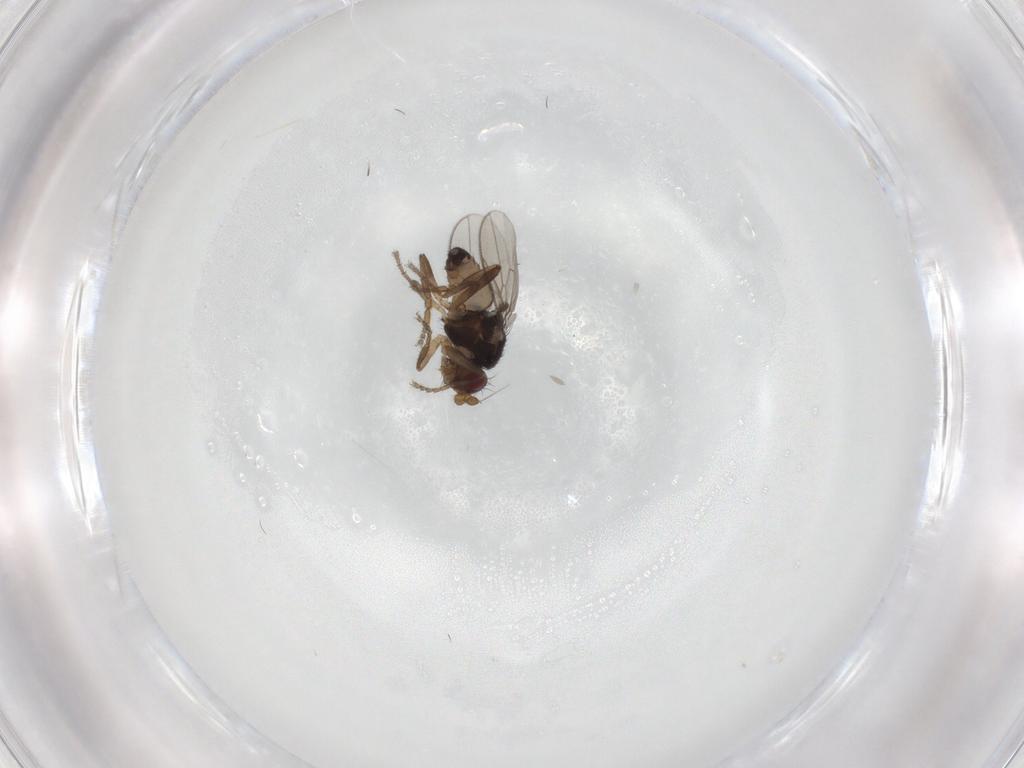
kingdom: Animalia
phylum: Arthropoda
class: Insecta
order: Diptera
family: Sphaeroceridae
